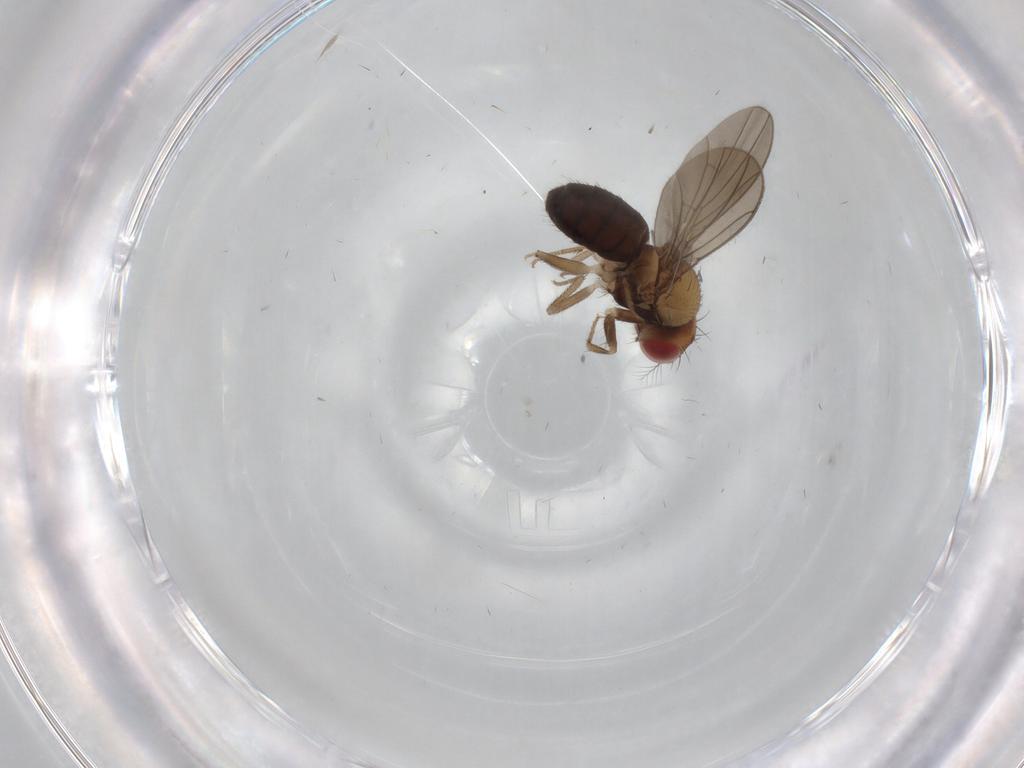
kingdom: Animalia
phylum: Arthropoda
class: Insecta
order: Diptera
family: Drosophilidae
